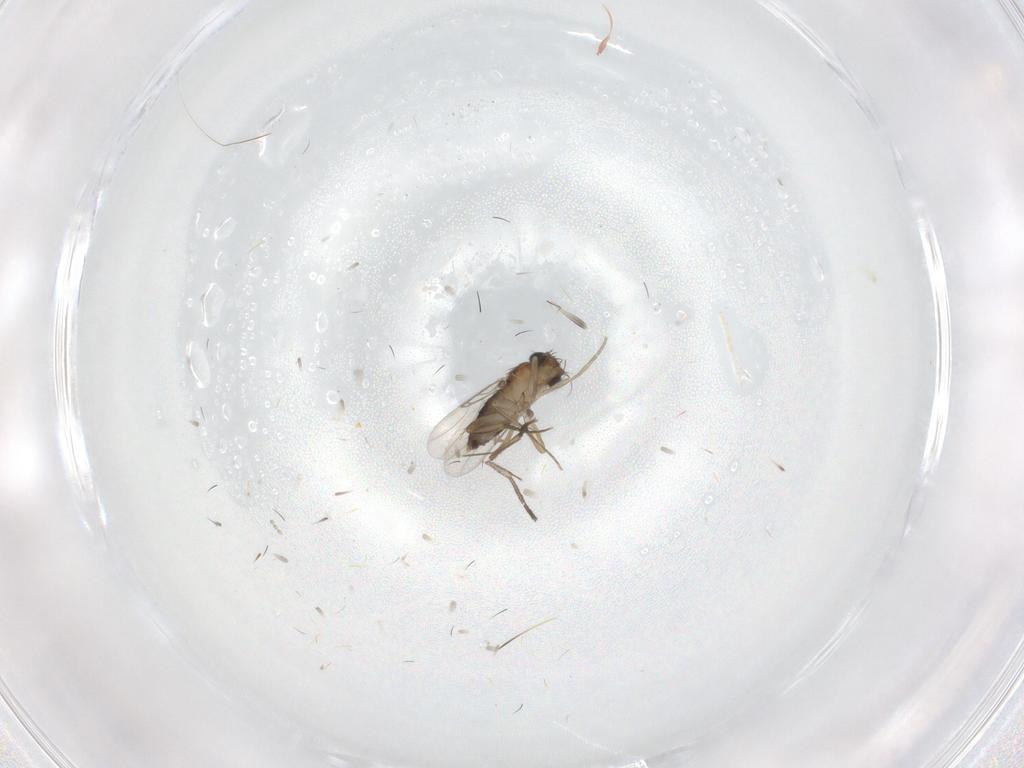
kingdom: Animalia
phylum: Arthropoda
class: Insecta
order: Diptera
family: Phoridae
